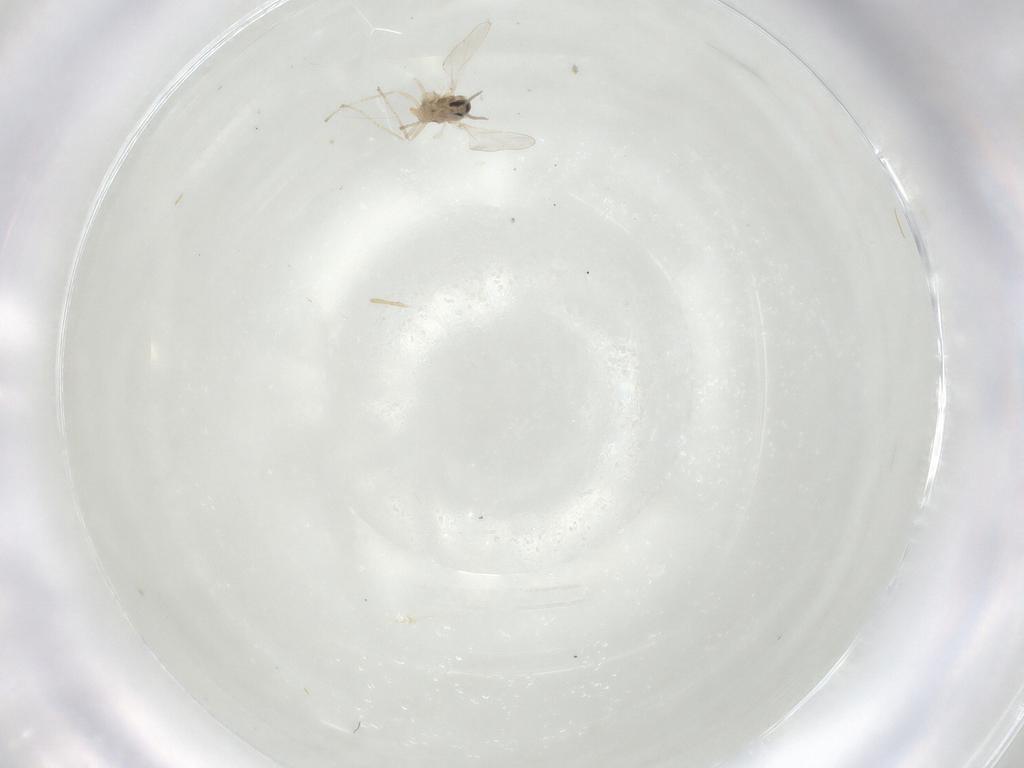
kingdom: Animalia
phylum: Arthropoda
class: Insecta
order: Diptera
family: Cecidomyiidae
